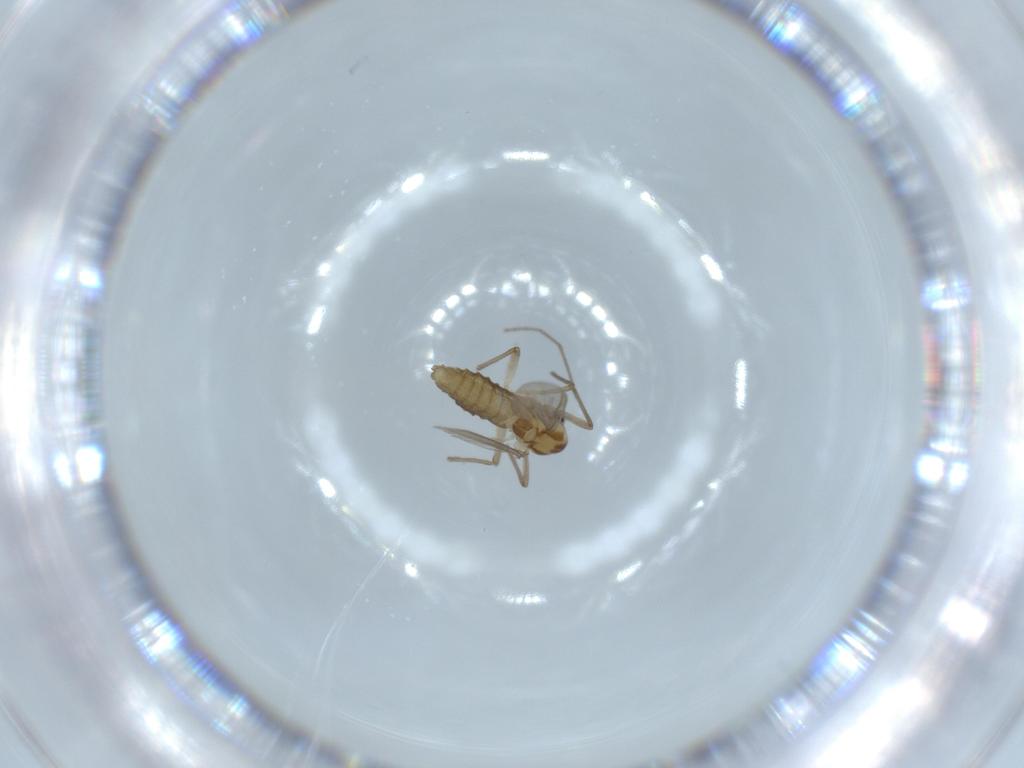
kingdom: Animalia
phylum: Arthropoda
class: Insecta
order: Diptera
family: Chironomidae
